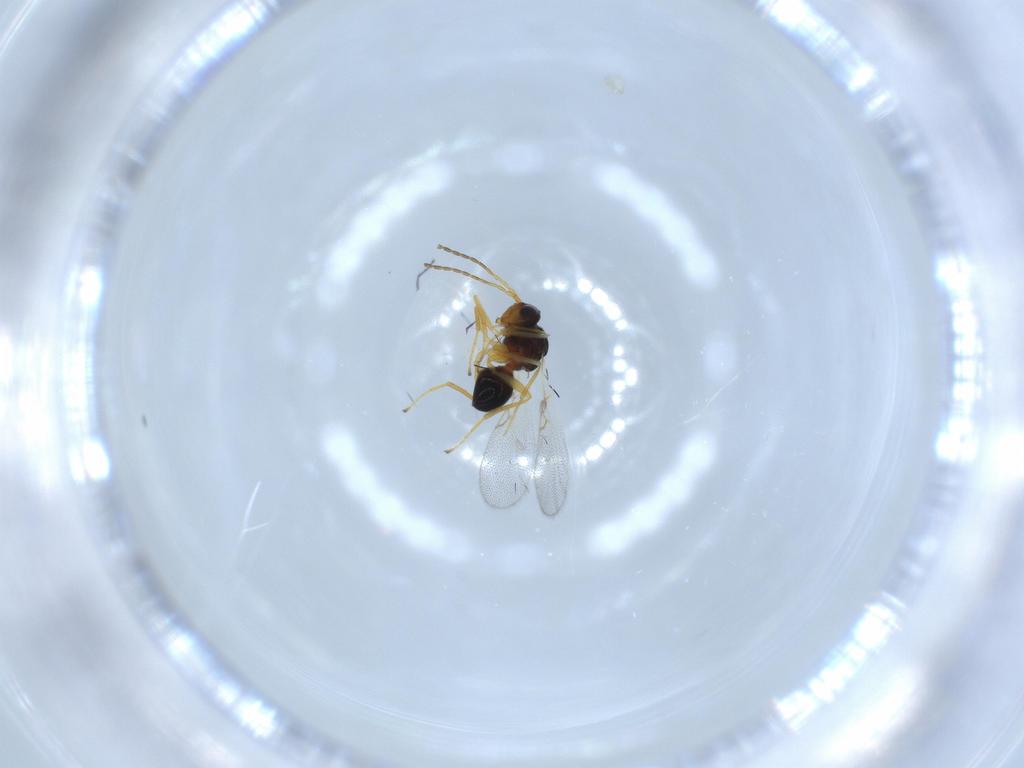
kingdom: Animalia
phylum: Arthropoda
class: Insecta
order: Hymenoptera
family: Figitidae
